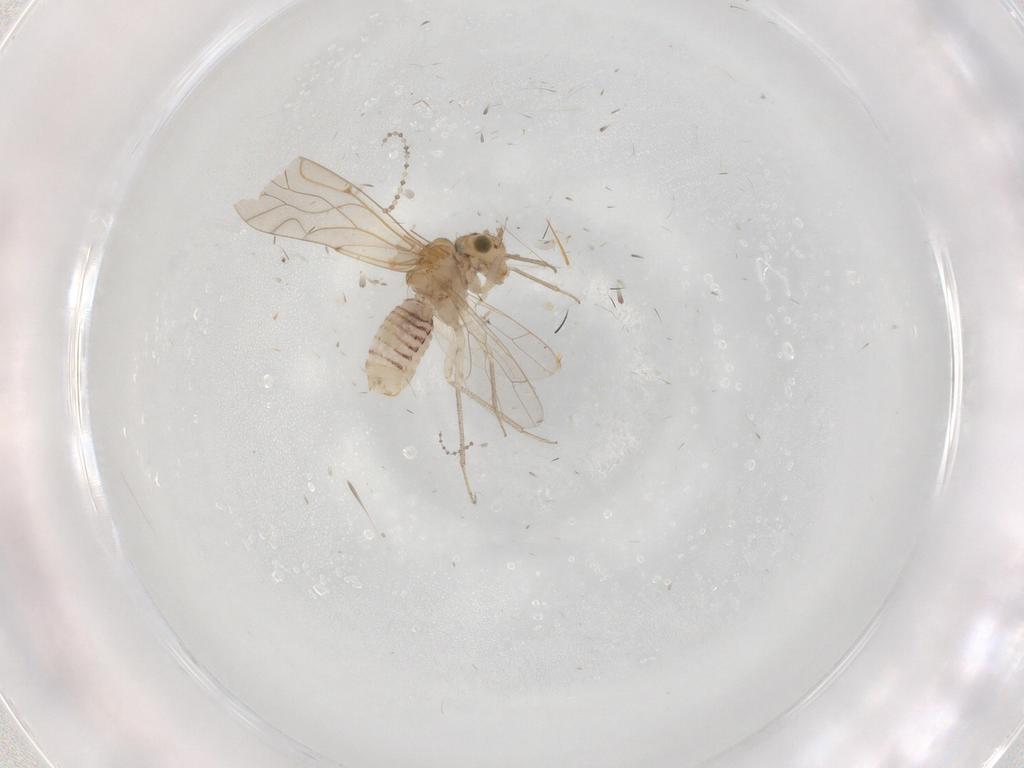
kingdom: Animalia
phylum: Arthropoda
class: Insecta
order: Psocodea
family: Lachesillidae
